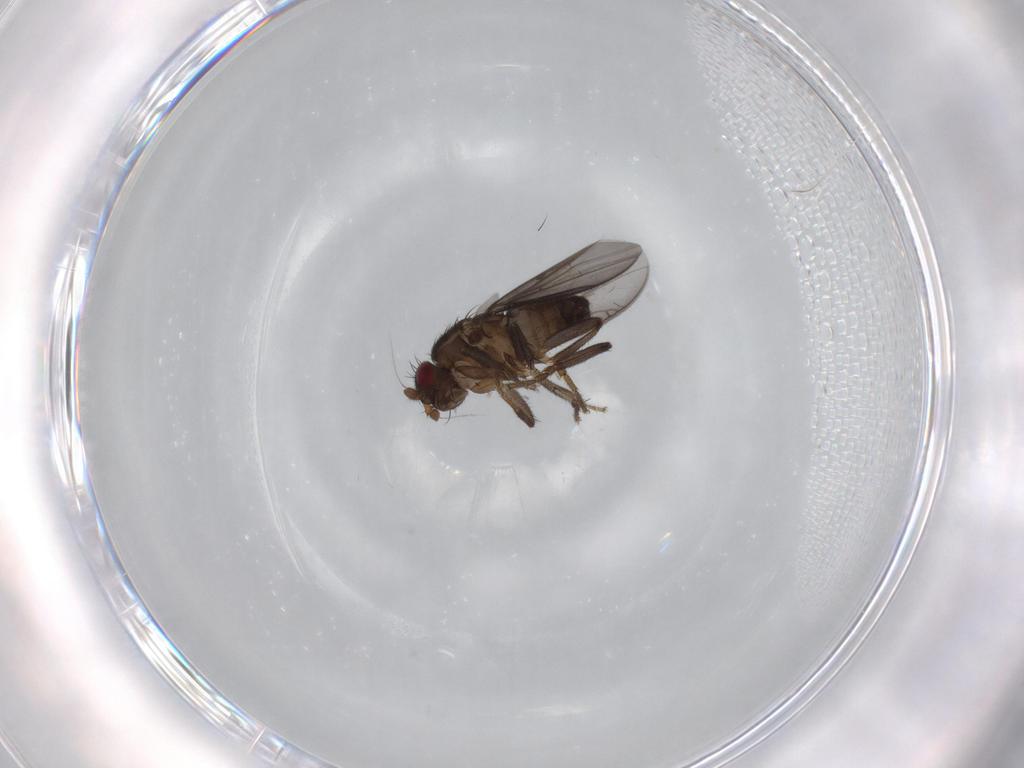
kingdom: Animalia
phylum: Arthropoda
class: Insecta
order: Diptera
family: Sphaeroceridae
